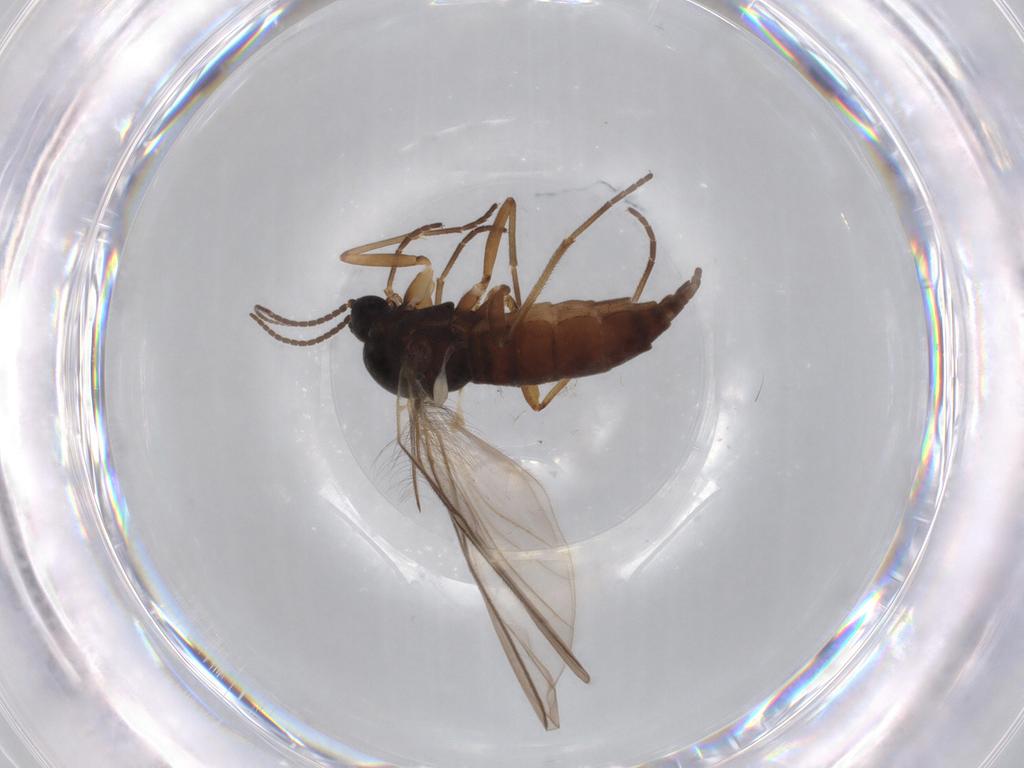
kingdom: Animalia
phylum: Arthropoda
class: Insecta
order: Diptera
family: Sciaridae
